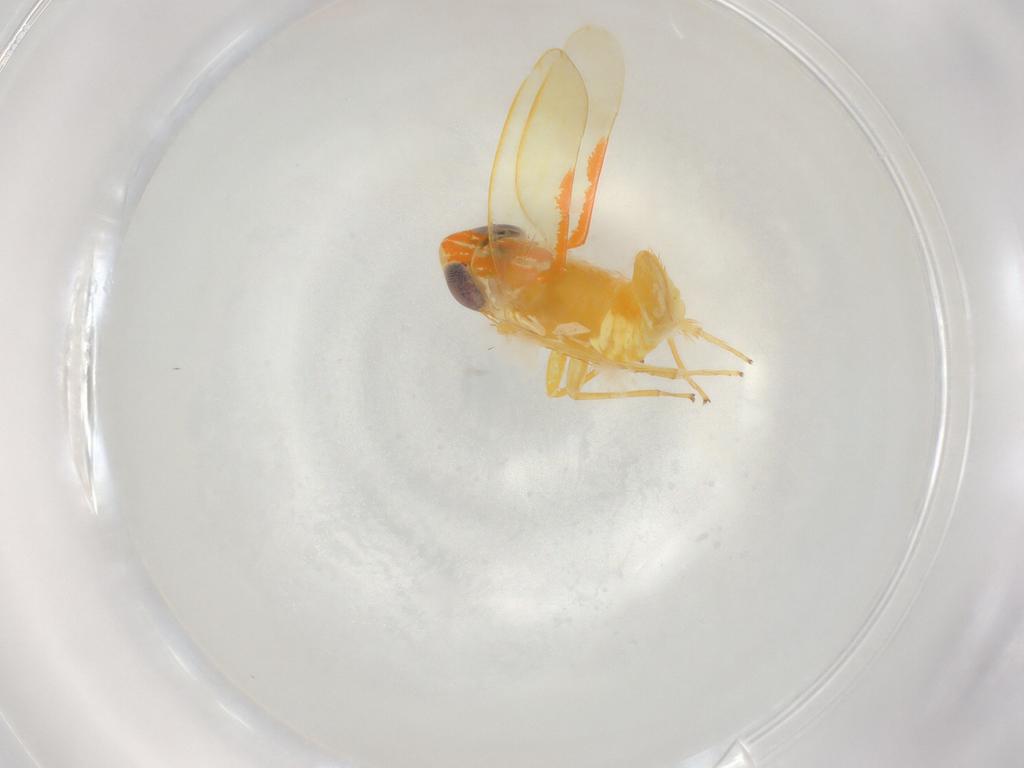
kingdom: Animalia
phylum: Arthropoda
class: Insecta
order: Hemiptera
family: Cicadellidae
